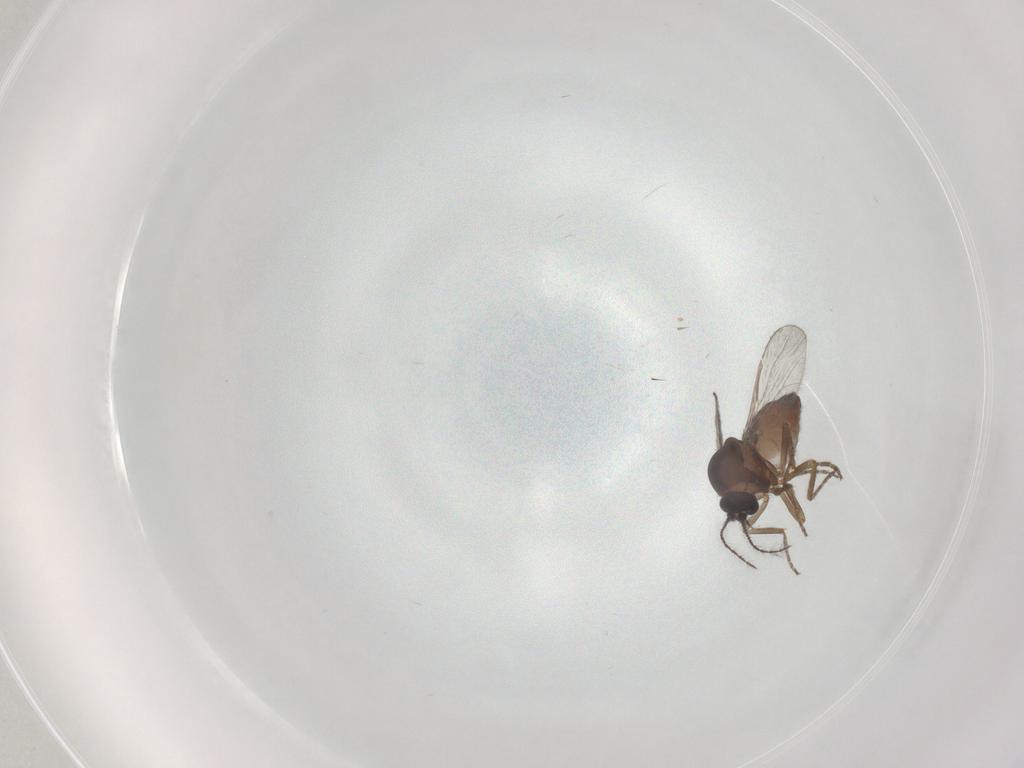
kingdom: Animalia
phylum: Arthropoda
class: Insecta
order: Diptera
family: Ceratopogonidae
